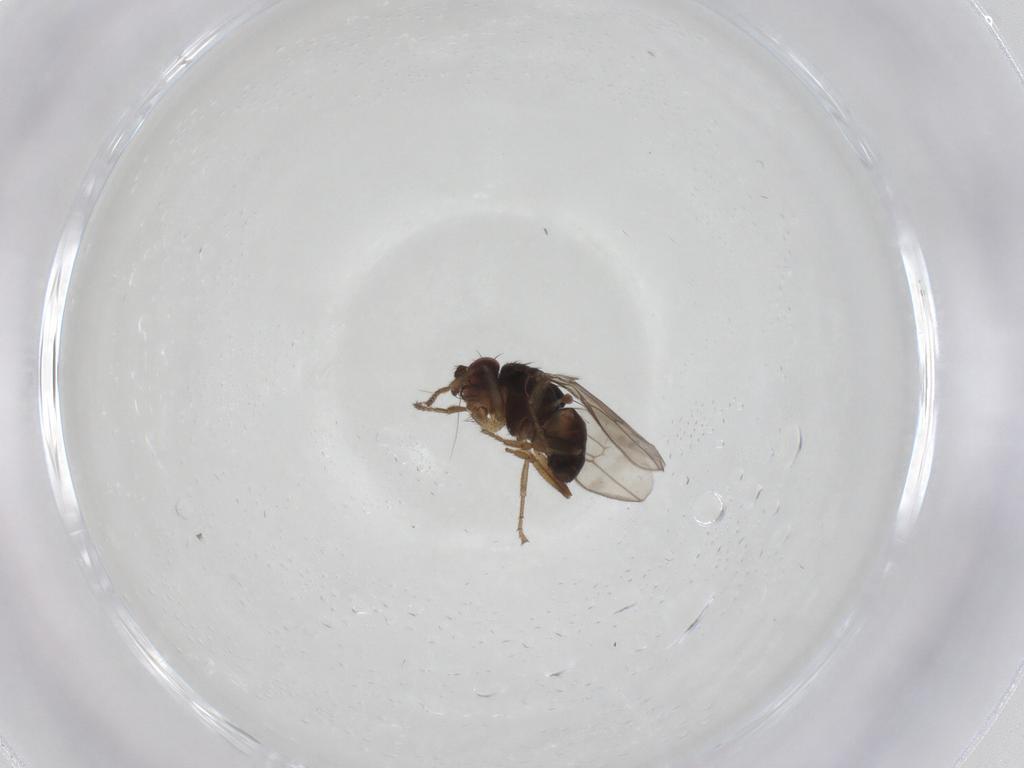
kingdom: Animalia
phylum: Arthropoda
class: Insecta
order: Diptera
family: Sphaeroceridae
